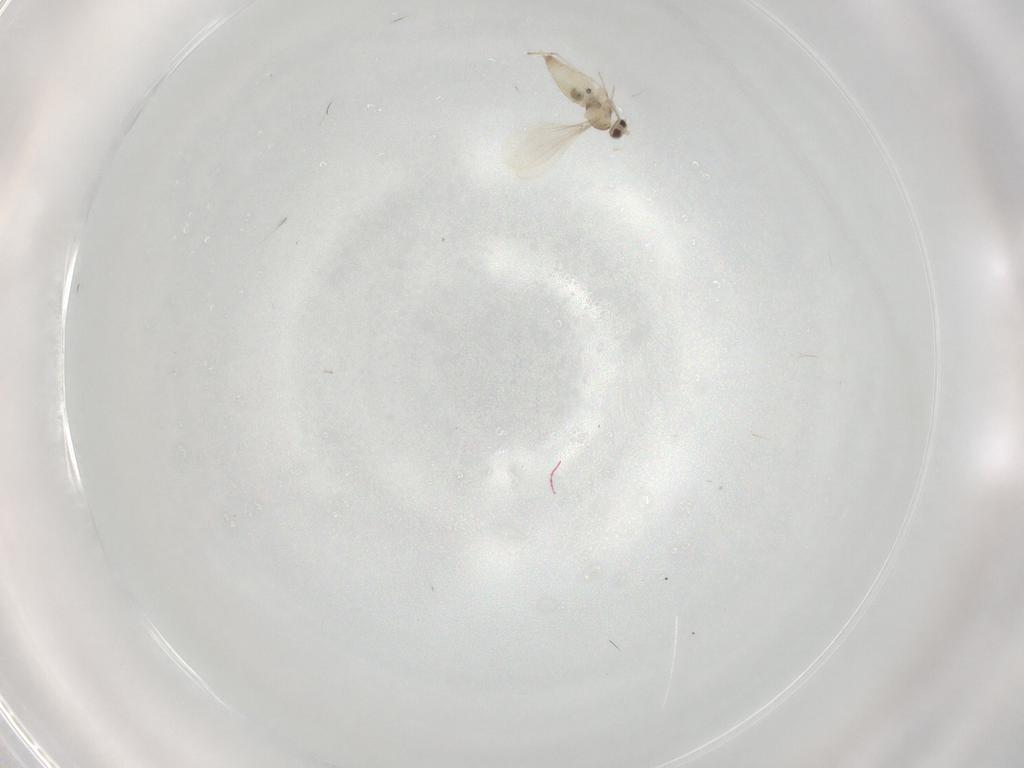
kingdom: Animalia
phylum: Arthropoda
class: Insecta
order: Diptera
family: Cecidomyiidae
